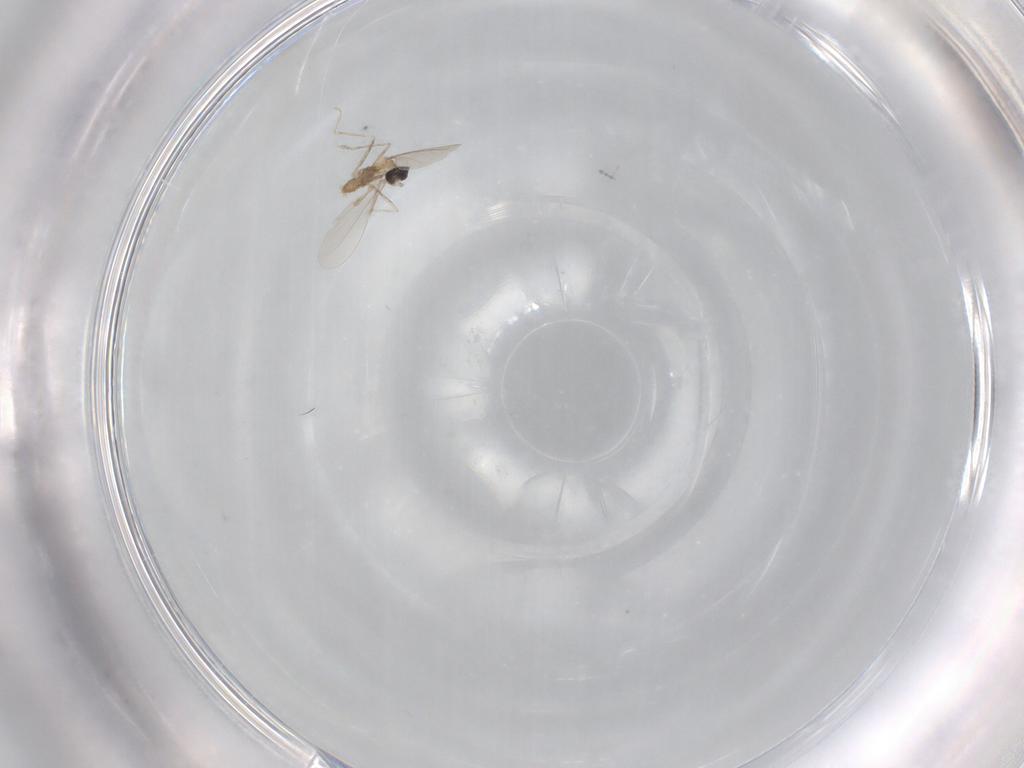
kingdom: Animalia
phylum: Arthropoda
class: Insecta
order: Diptera
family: Cecidomyiidae
